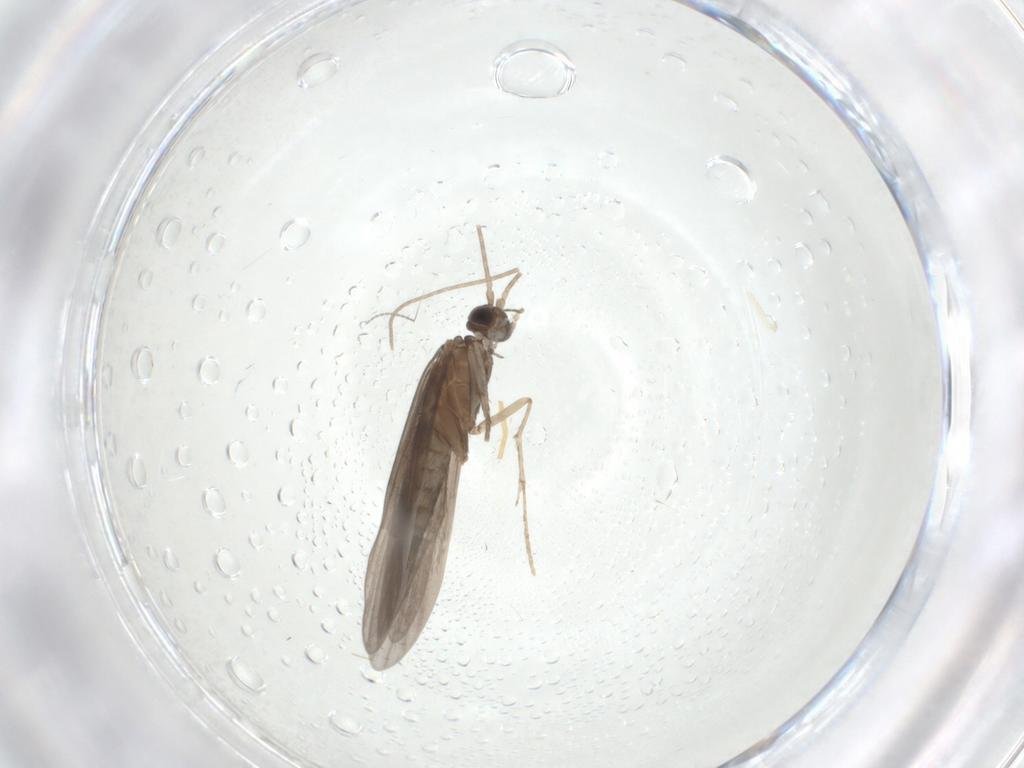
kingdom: Animalia
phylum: Arthropoda
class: Insecta
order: Trichoptera
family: Xiphocentronidae
